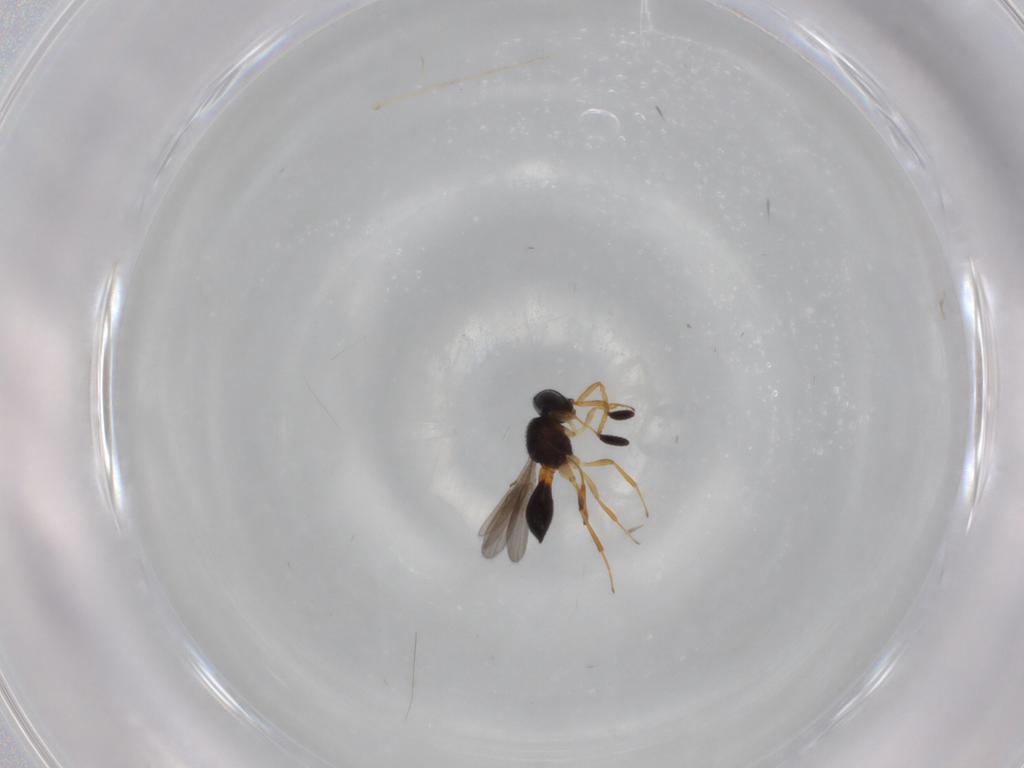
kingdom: Animalia
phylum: Arthropoda
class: Insecta
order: Hymenoptera
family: Scelionidae
